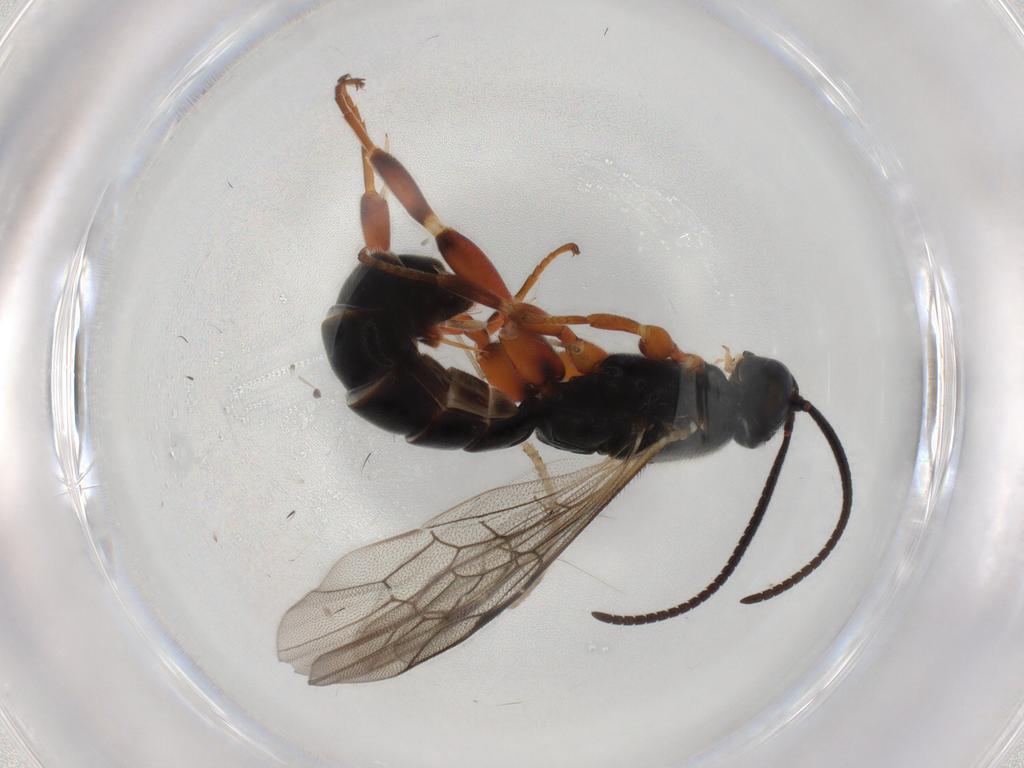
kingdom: Animalia
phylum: Arthropoda
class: Insecta
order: Hymenoptera
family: Ichneumonidae
